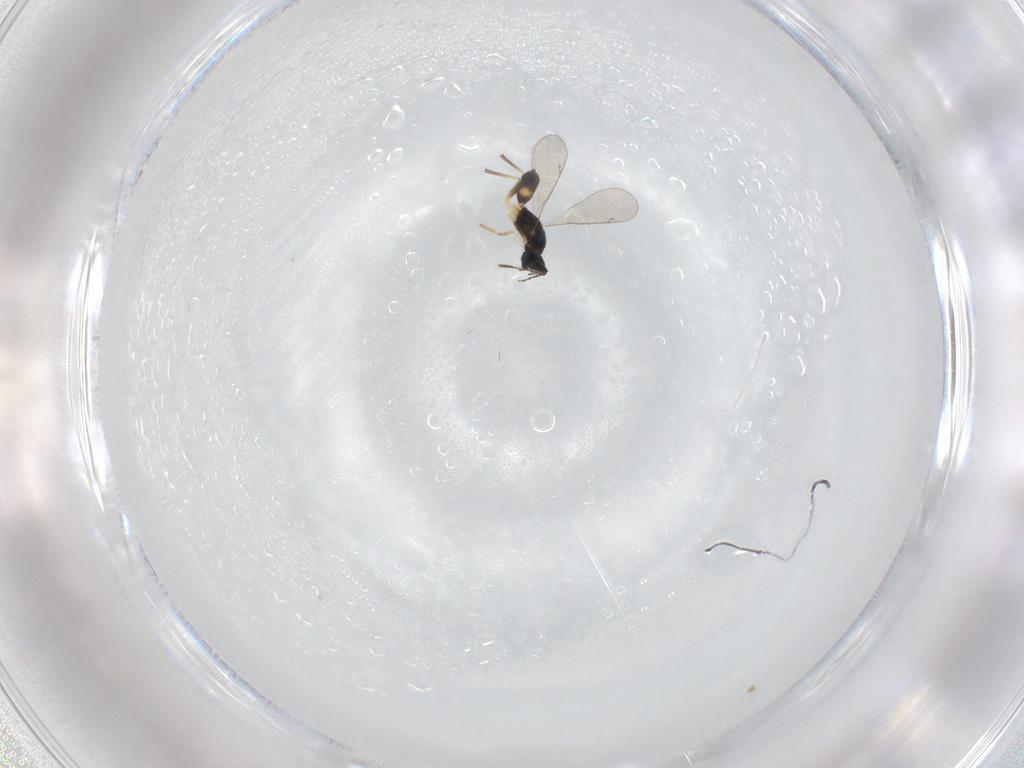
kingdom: Animalia
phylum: Arthropoda
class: Insecta
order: Hymenoptera
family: Eulophidae
